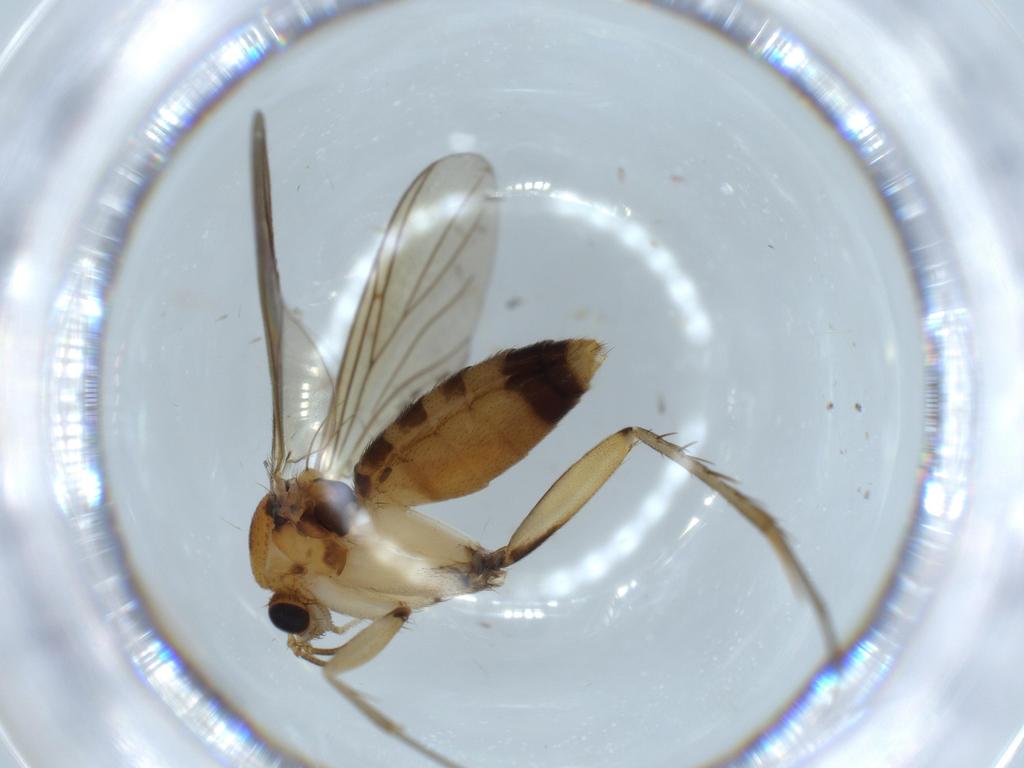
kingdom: Animalia
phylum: Arthropoda
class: Insecta
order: Diptera
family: Cecidomyiidae
